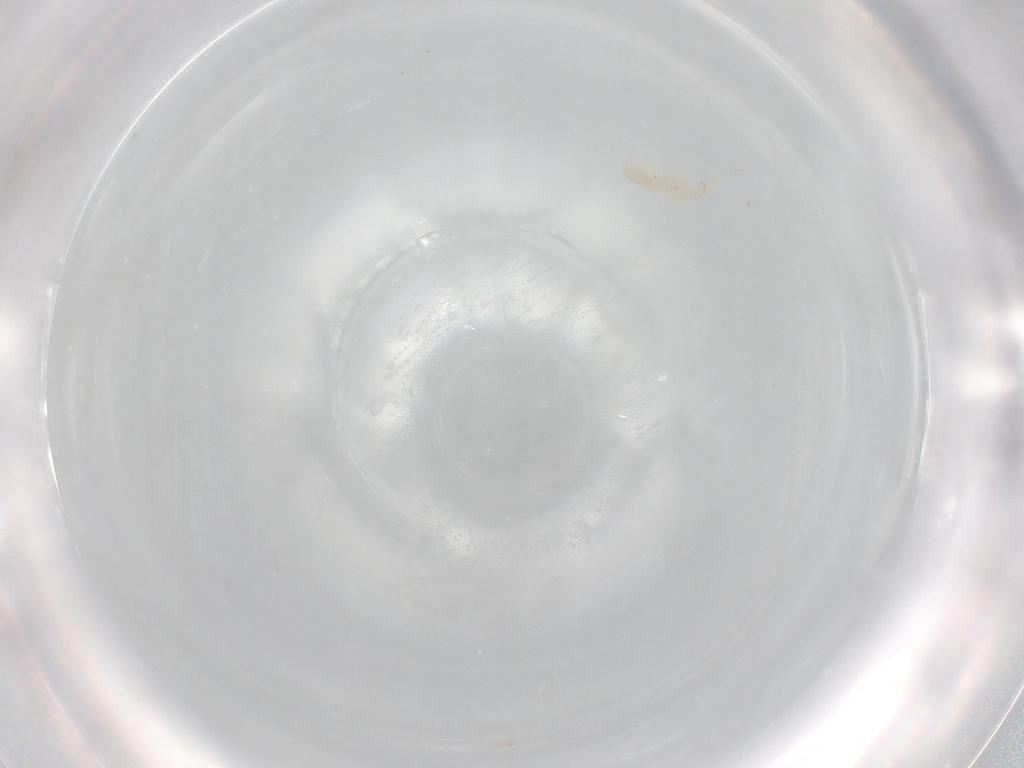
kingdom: Animalia
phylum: Arthropoda
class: Collembola
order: Entomobryomorpha
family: Isotomidae
